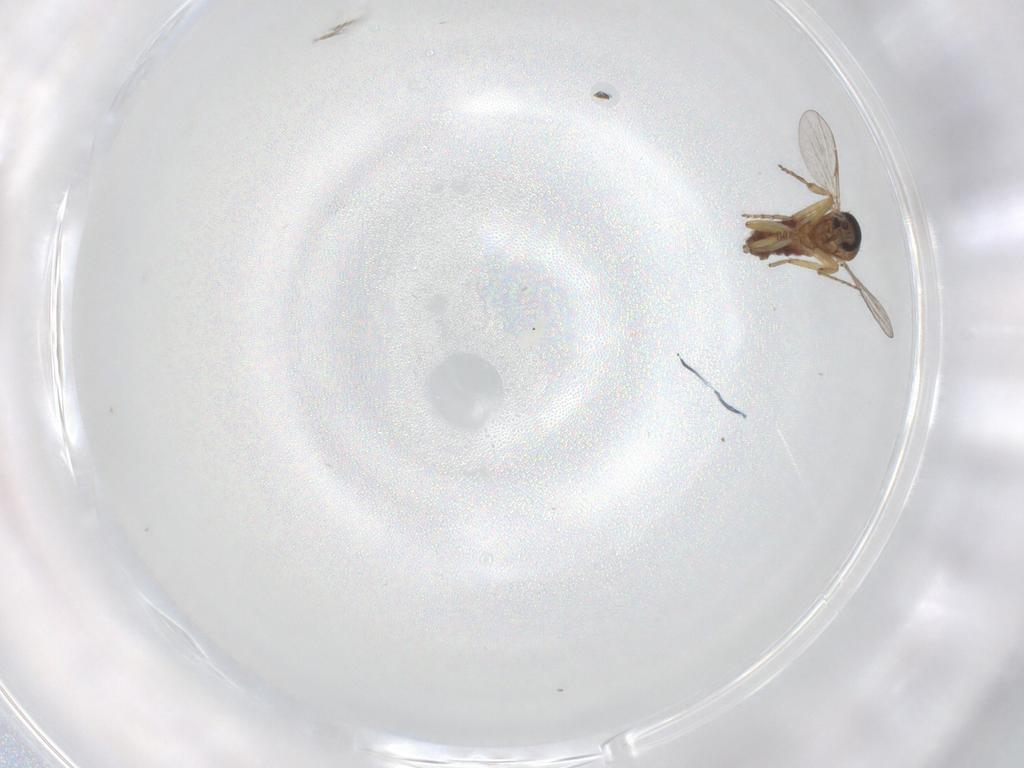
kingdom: Animalia
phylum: Arthropoda
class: Insecta
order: Diptera
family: Ceratopogonidae
